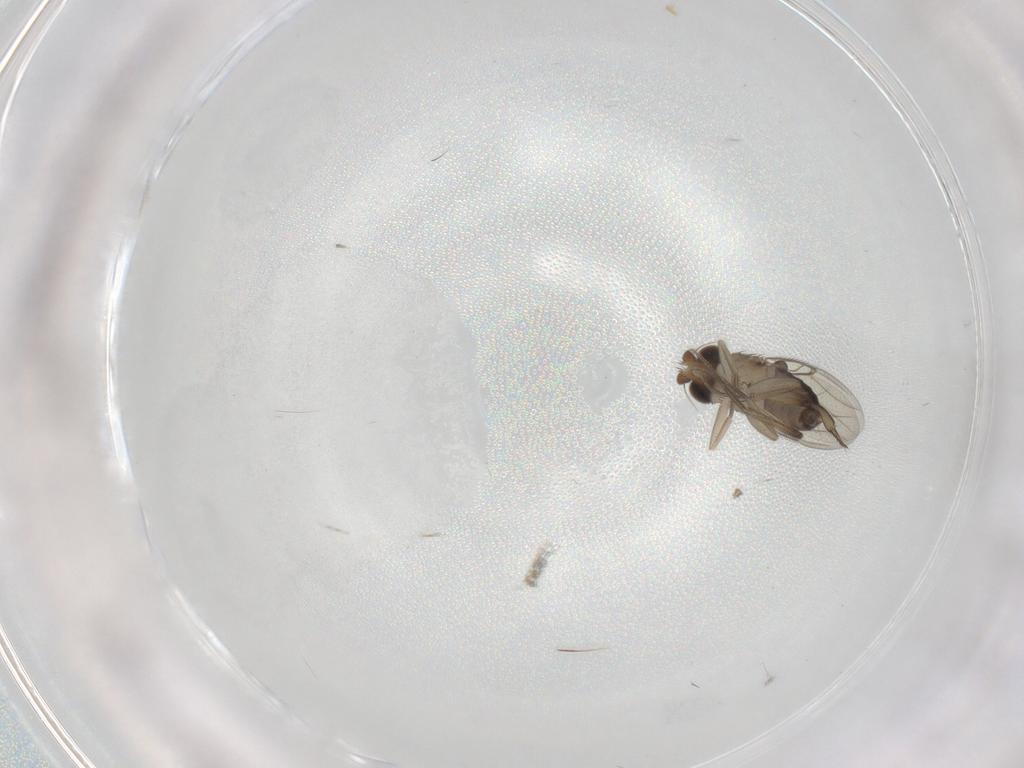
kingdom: Animalia
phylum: Arthropoda
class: Insecta
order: Diptera
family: Phoridae
